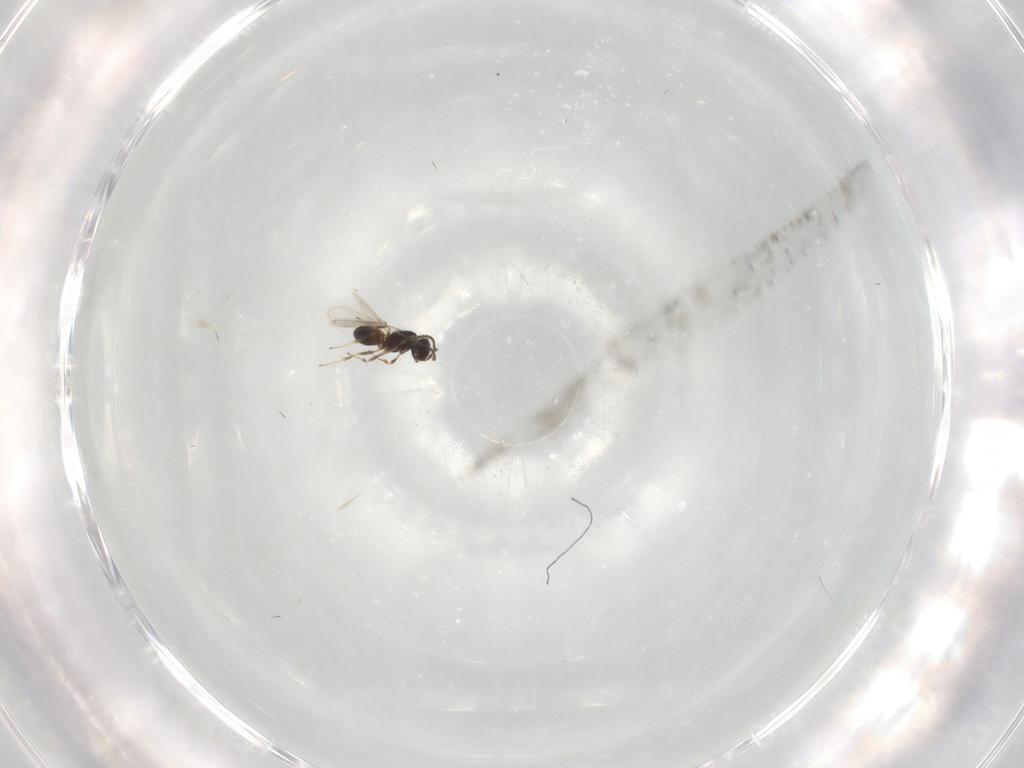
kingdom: Animalia
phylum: Arthropoda
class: Insecta
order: Hymenoptera
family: Scelionidae
